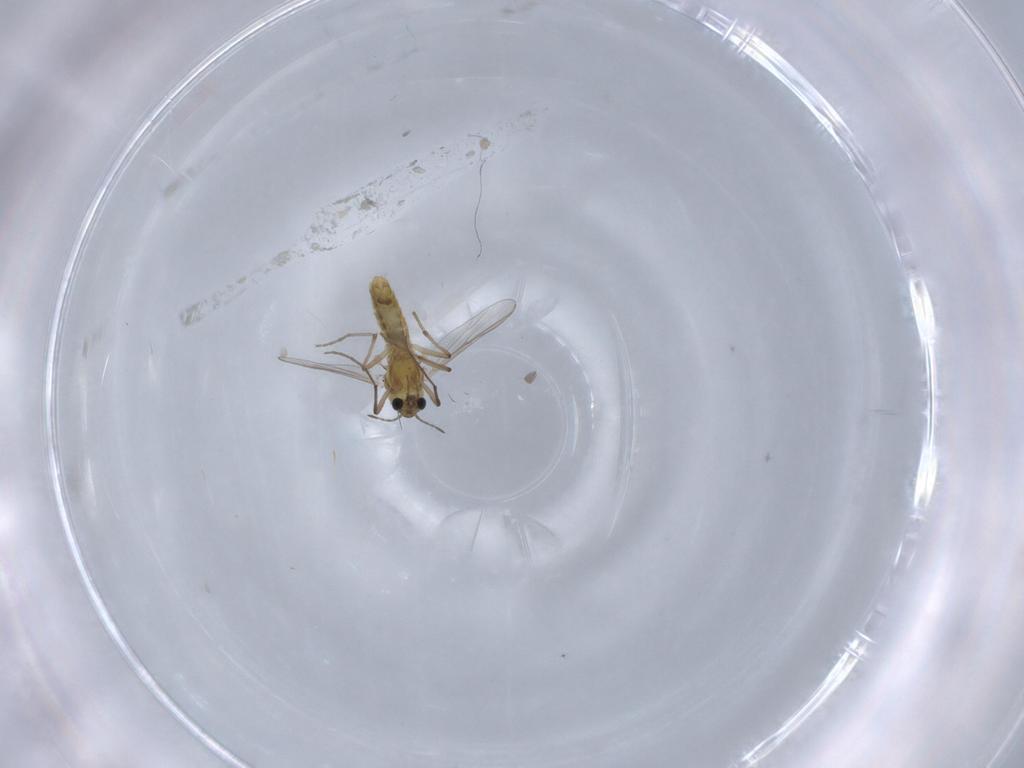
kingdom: Animalia
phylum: Arthropoda
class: Insecta
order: Diptera
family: Chironomidae
